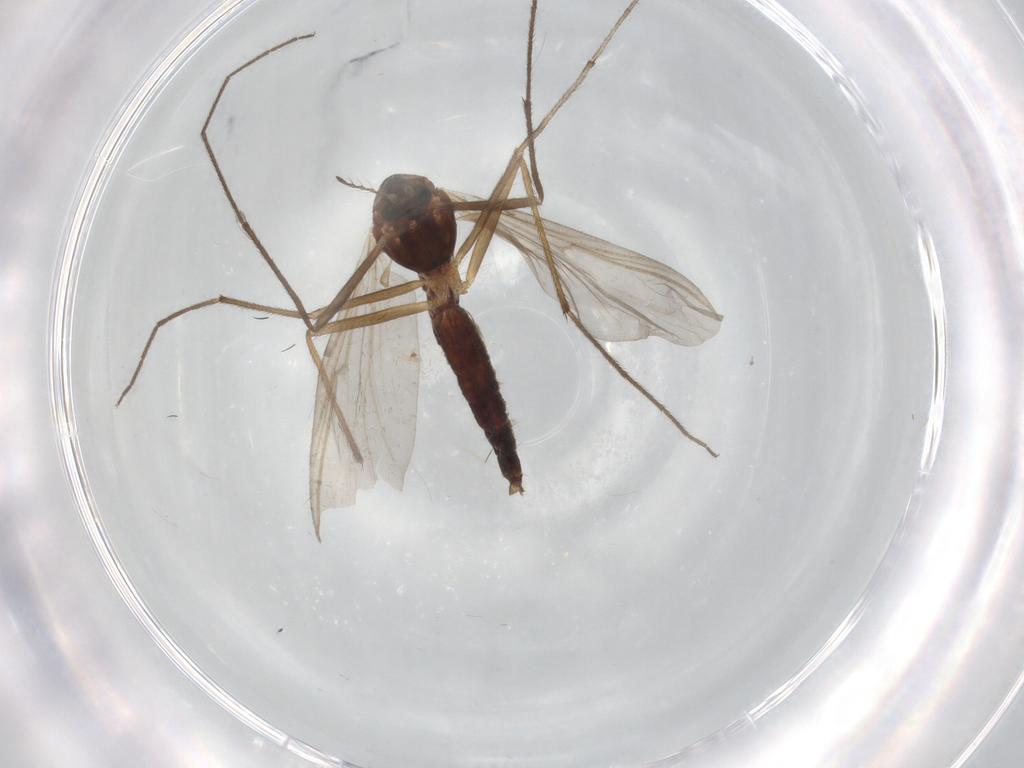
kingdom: Animalia
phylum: Arthropoda
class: Insecta
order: Diptera
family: Chironomidae
